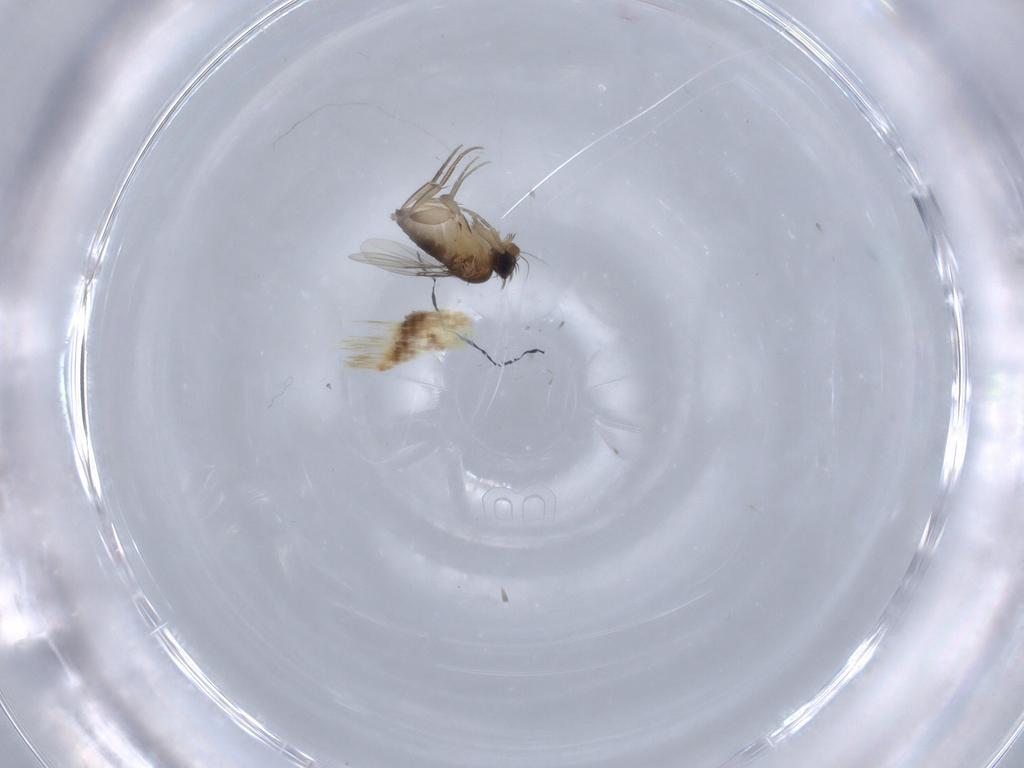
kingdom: Animalia
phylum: Arthropoda
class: Insecta
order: Diptera
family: Phoridae
